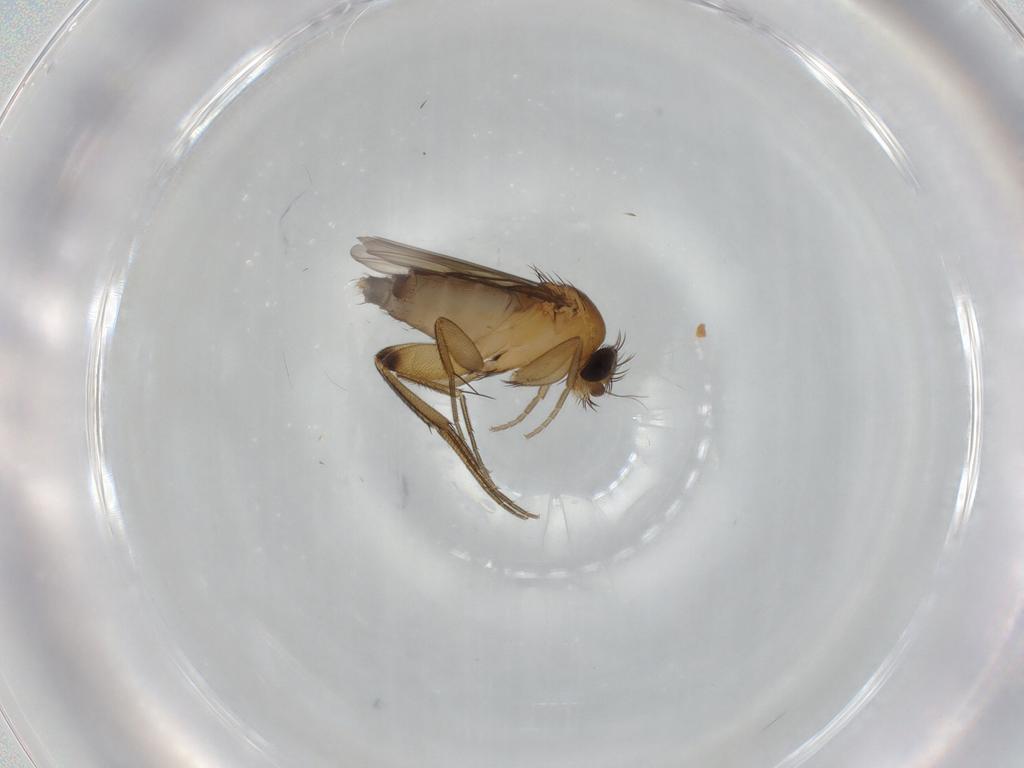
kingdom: Animalia
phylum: Arthropoda
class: Insecta
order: Diptera
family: Phoridae
